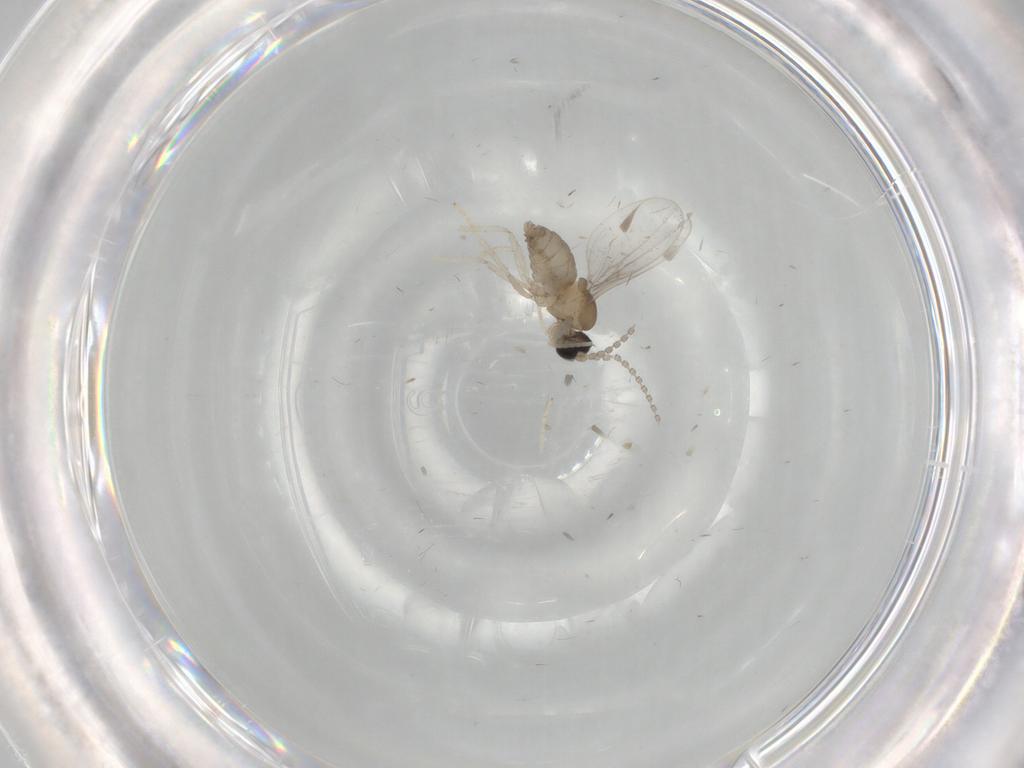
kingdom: Animalia
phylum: Arthropoda
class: Insecta
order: Diptera
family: Cecidomyiidae
